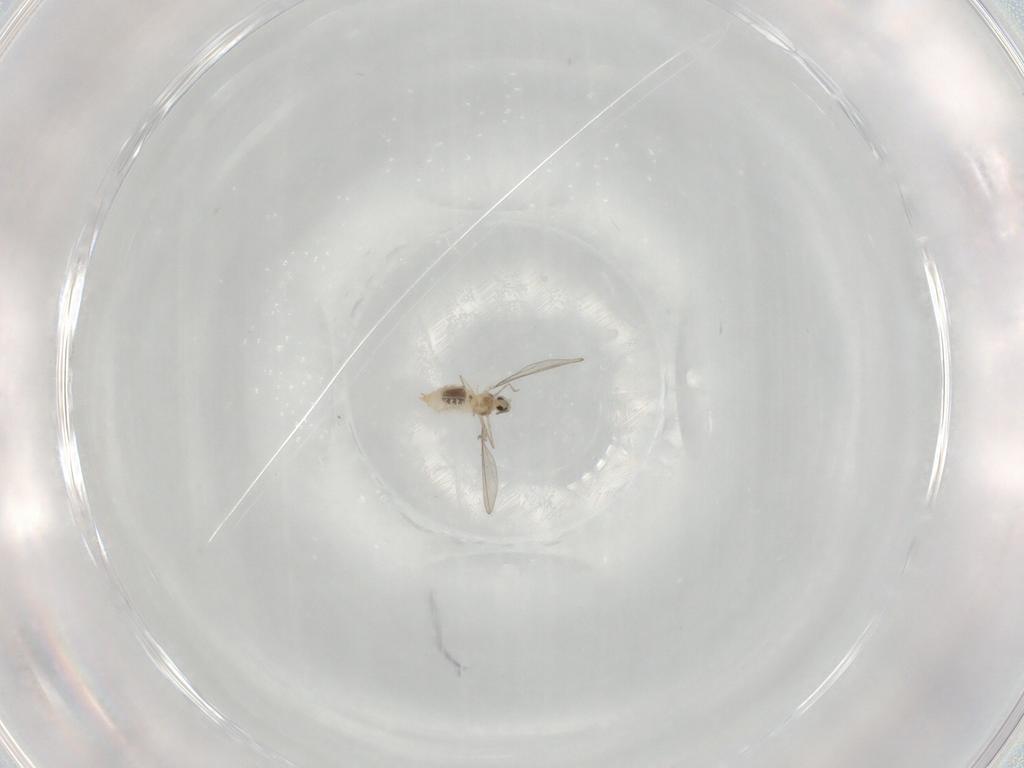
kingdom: Animalia
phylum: Arthropoda
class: Insecta
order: Diptera
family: Cecidomyiidae
